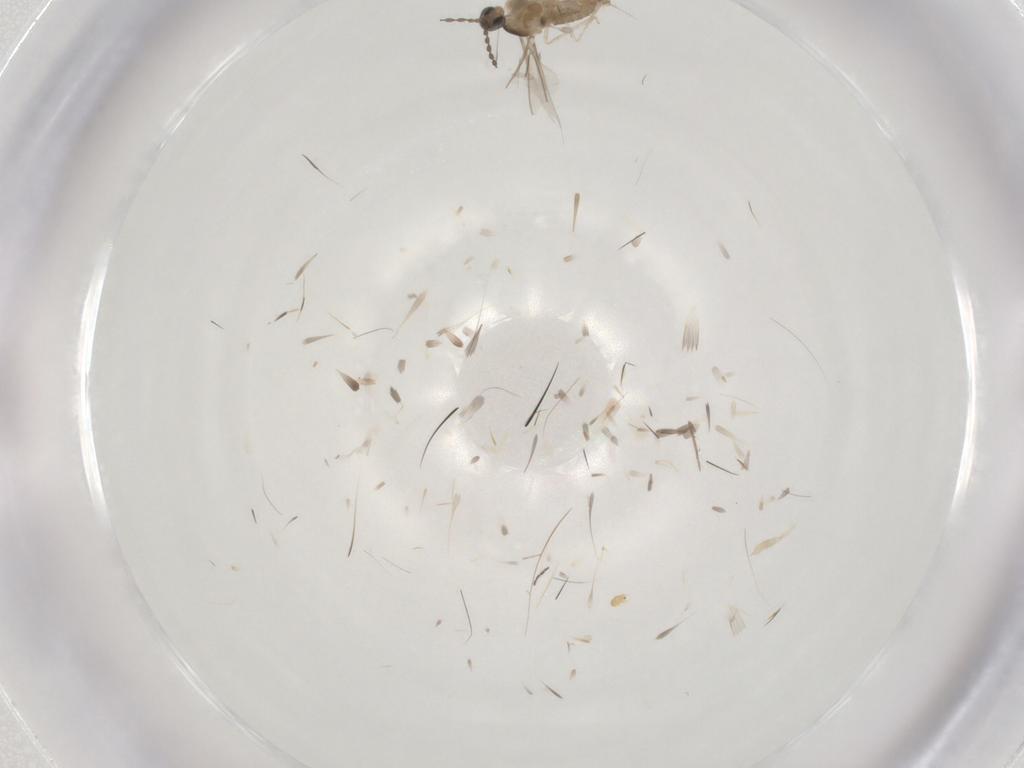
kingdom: Animalia
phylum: Arthropoda
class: Insecta
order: Diptera
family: Cecidomyiidae
